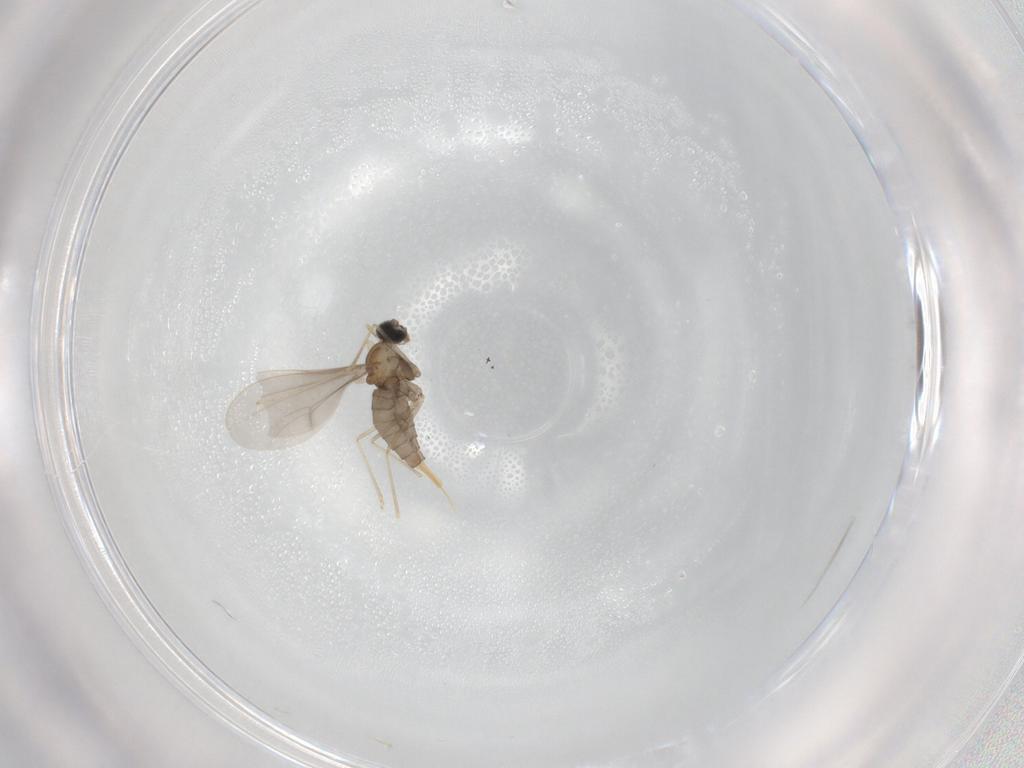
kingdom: Animalia
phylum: Arthropoda
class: Insecta
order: Diptera
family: Cecidomyiidae
